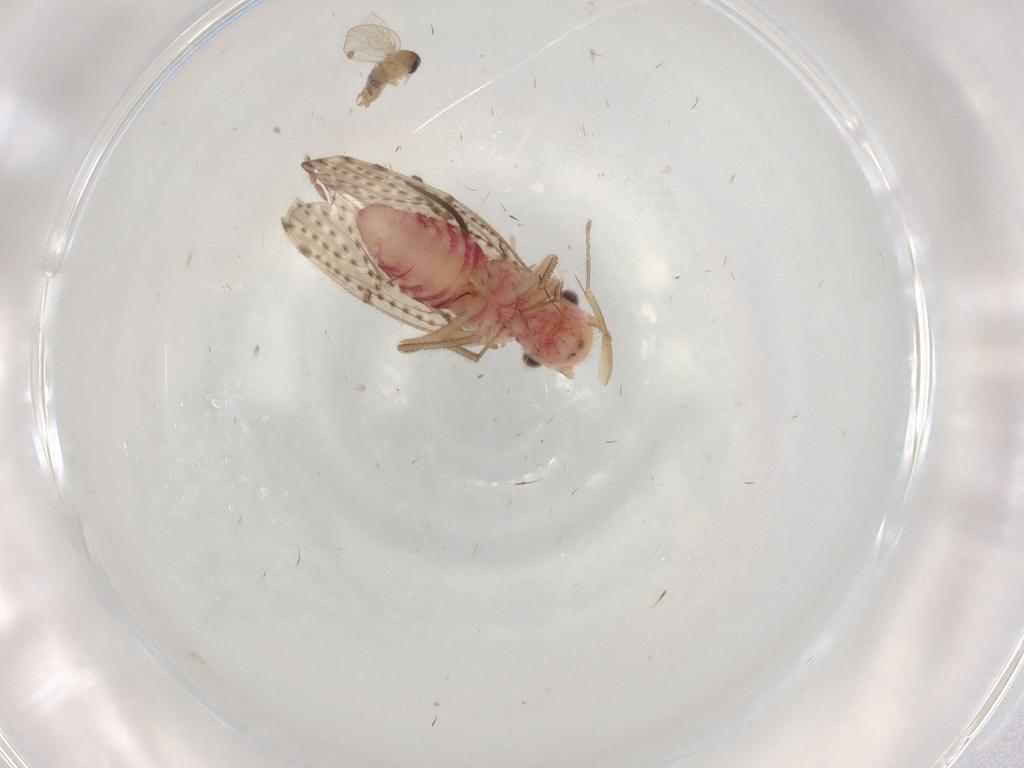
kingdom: Animalia
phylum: Arthropoda
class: Insecta
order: Diptera
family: Psychodidae
